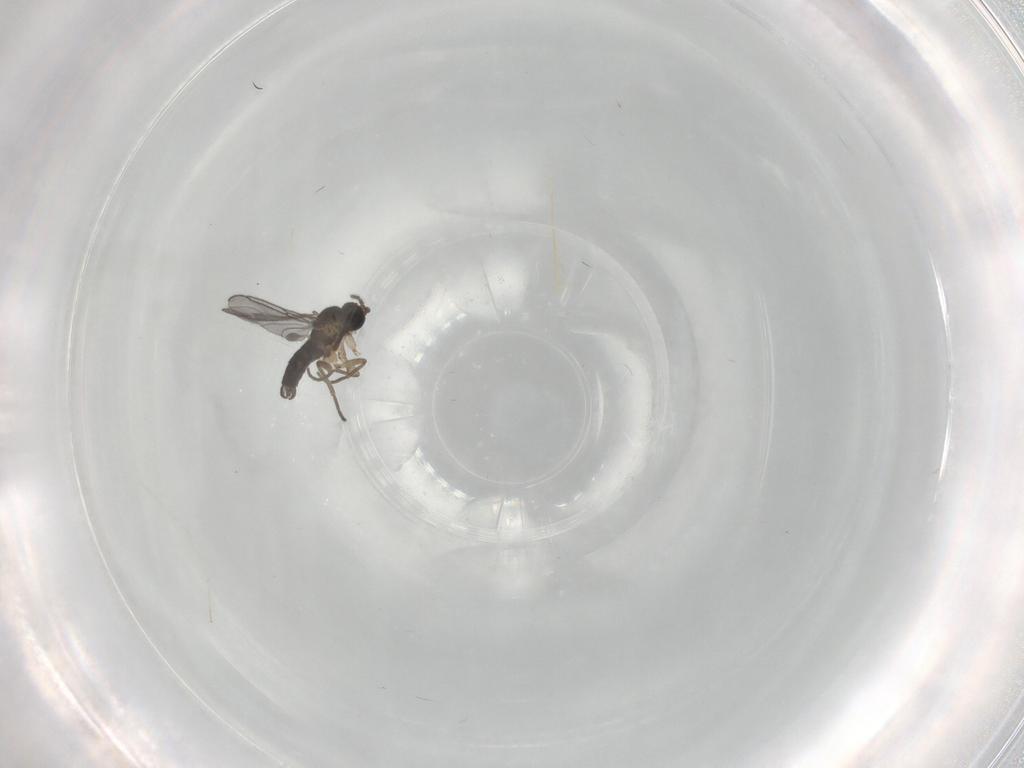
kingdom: Animalia
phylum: Arthropoda
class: Insecta
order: Diptera
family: Sciaridae
